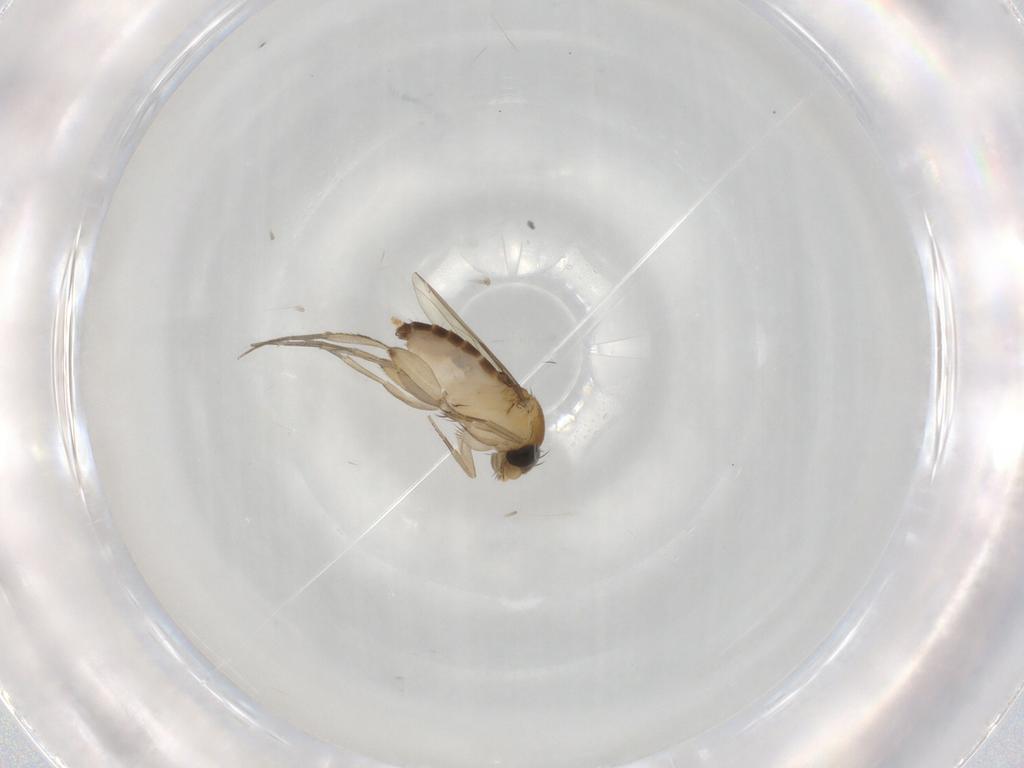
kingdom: Animalia
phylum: Arthropoda
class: Insecta
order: Diptera
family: Phoridae
